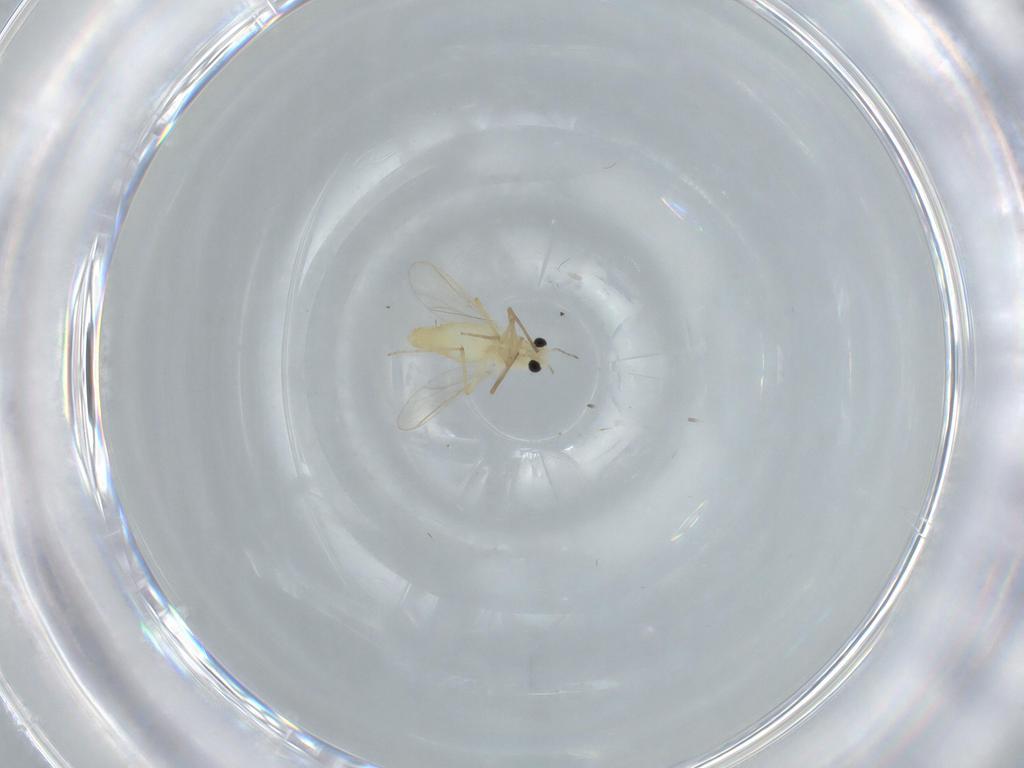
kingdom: Animalia
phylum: Arthropoda
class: Insecta
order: Diptera
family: Chironomidae
